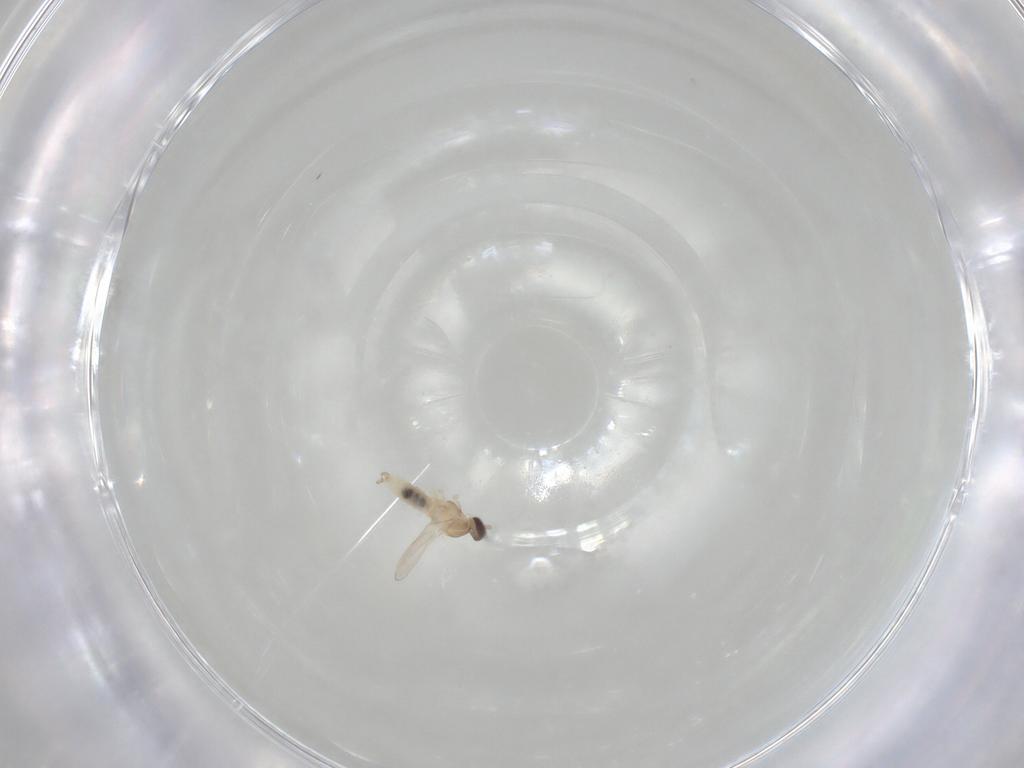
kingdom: Animalia
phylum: Arthropoda
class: Insecta
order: Diptera
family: Cecidomyiidae
